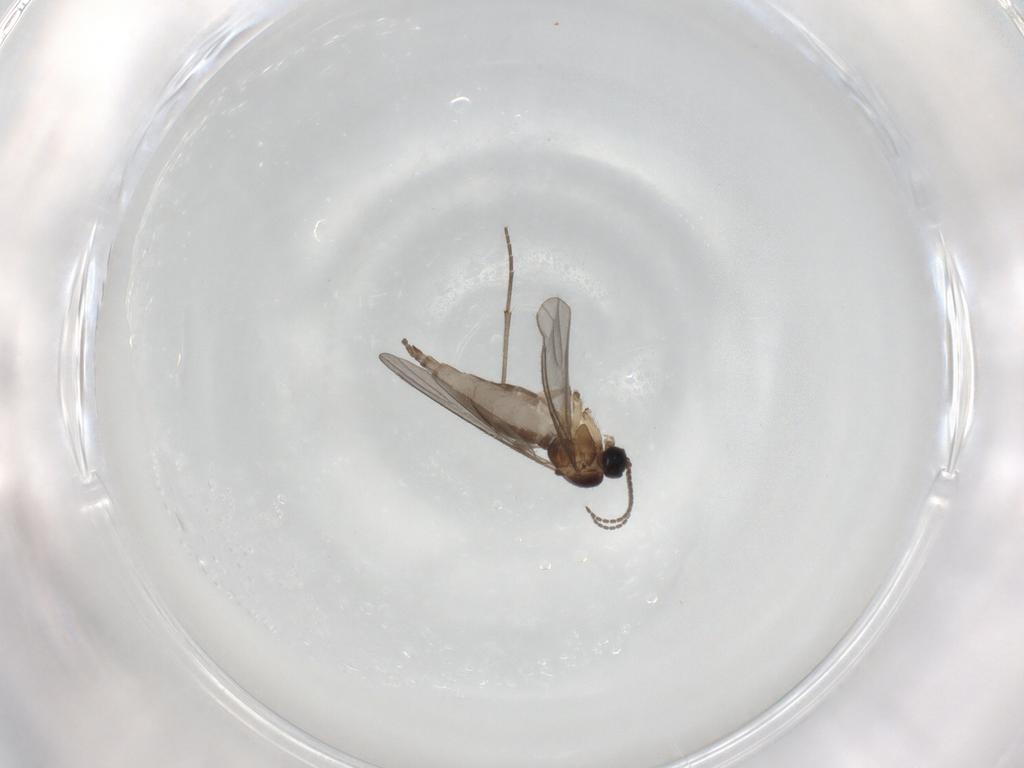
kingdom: Animalia
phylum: Arthropoda
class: Insecta
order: Diptera
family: Sciaridae
